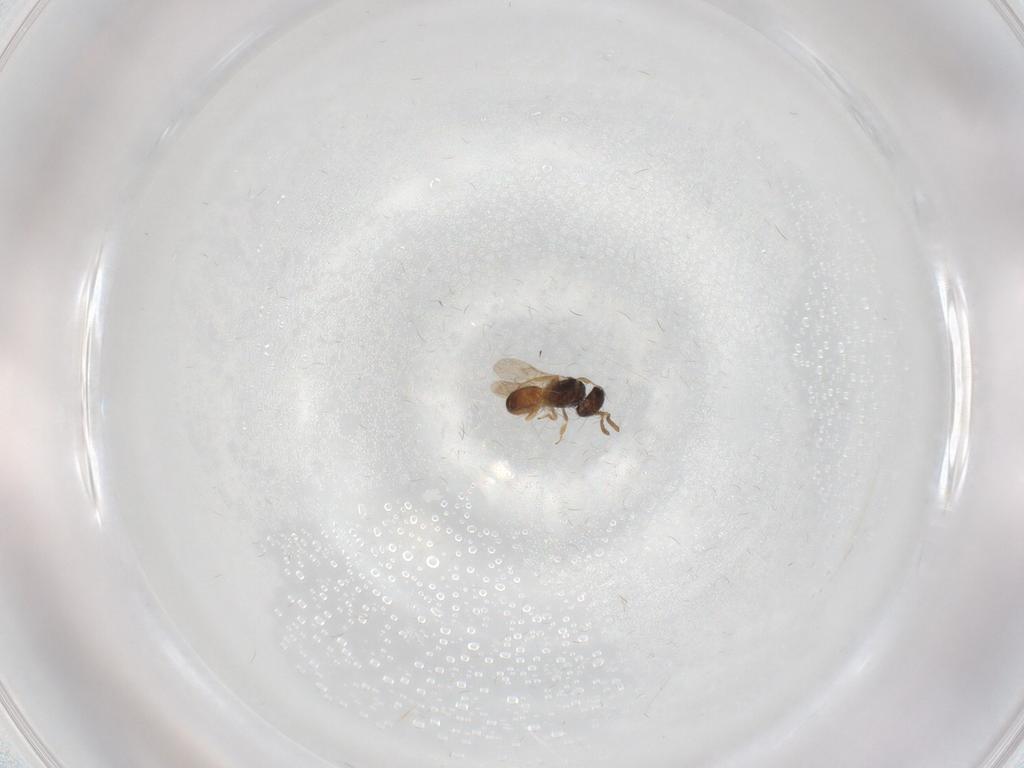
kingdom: Animalia
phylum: Arthropoda
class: Insecta
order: Hymenoptera
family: Scelionidae
